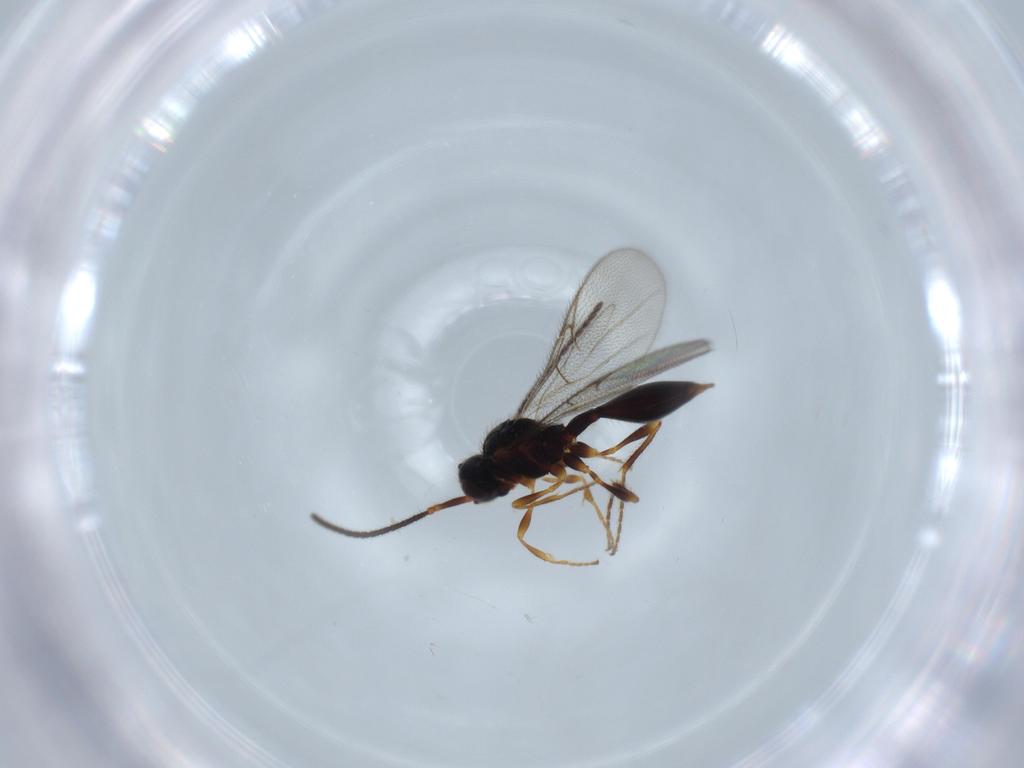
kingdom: Animalia
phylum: Arthropoda
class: Insecta
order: Hymenoptera
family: Diapriidae
